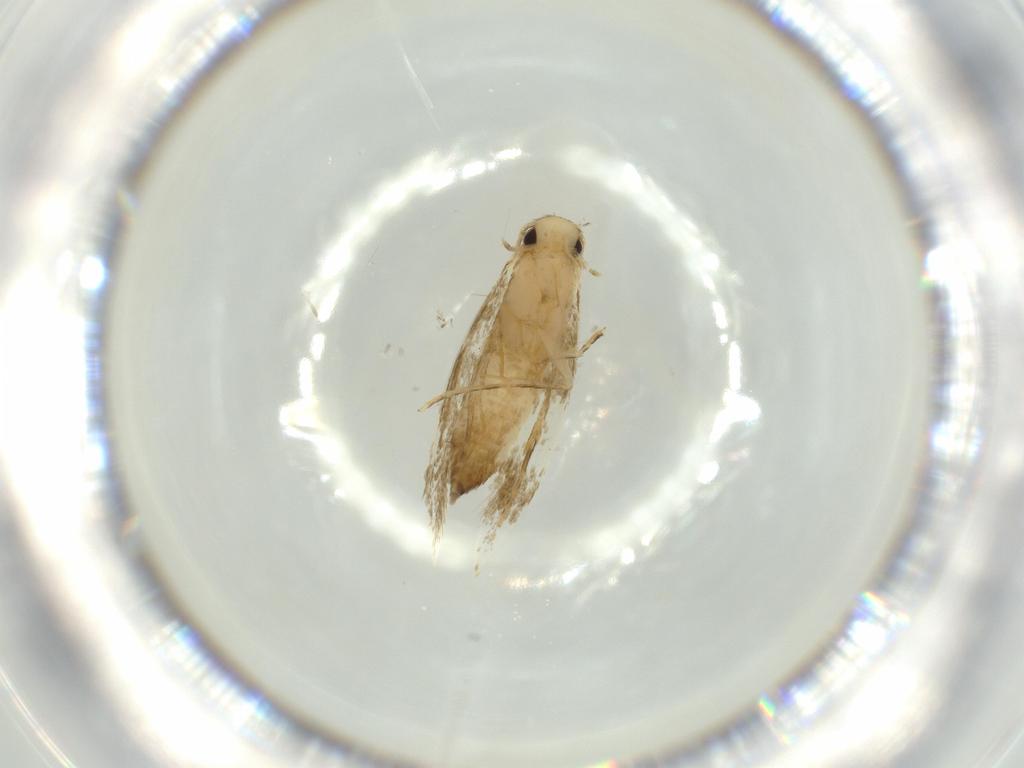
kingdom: Animalia
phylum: Arthropoda
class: Insecta
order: Lepidoptera
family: Tineidae
